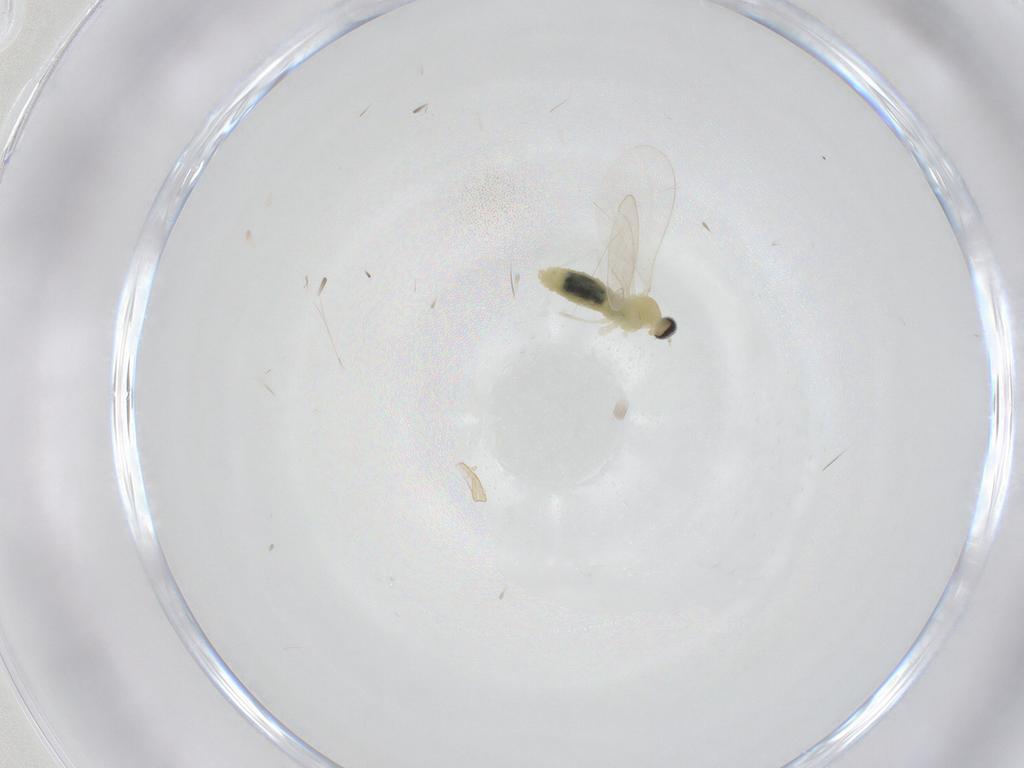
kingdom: Animalia
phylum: Arthropoda
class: Insecta
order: Diptera
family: Cecidomyiidae
